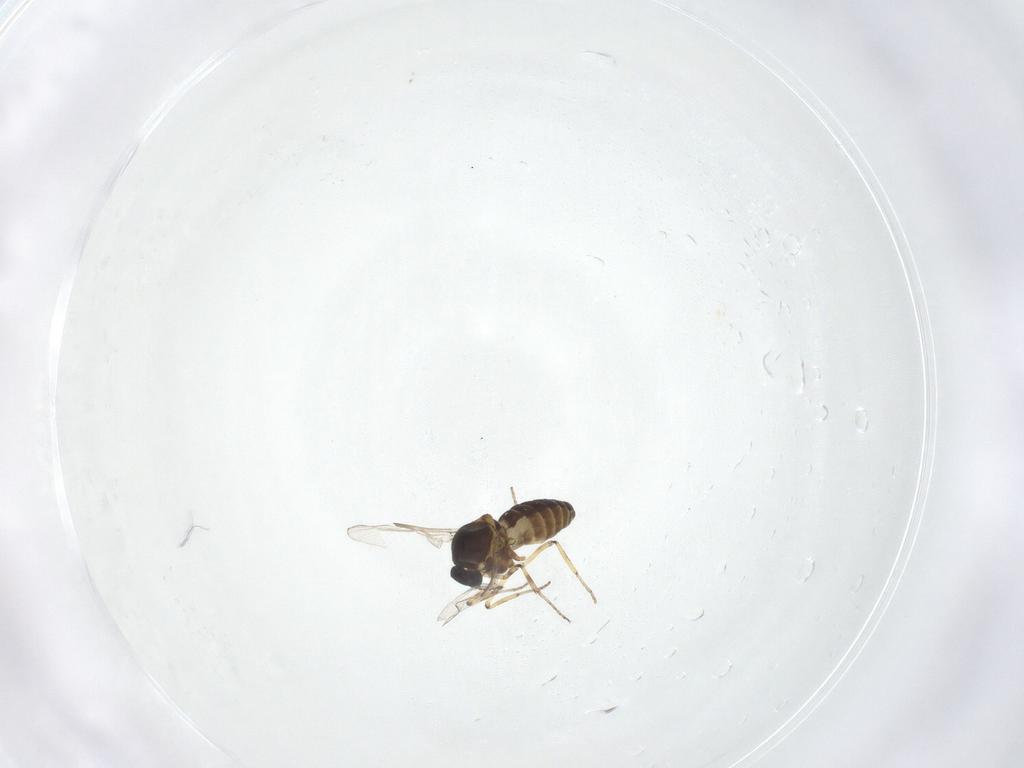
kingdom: Animalia
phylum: Arthropoda
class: Insecta
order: Diptera
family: Ceratopogonidae
